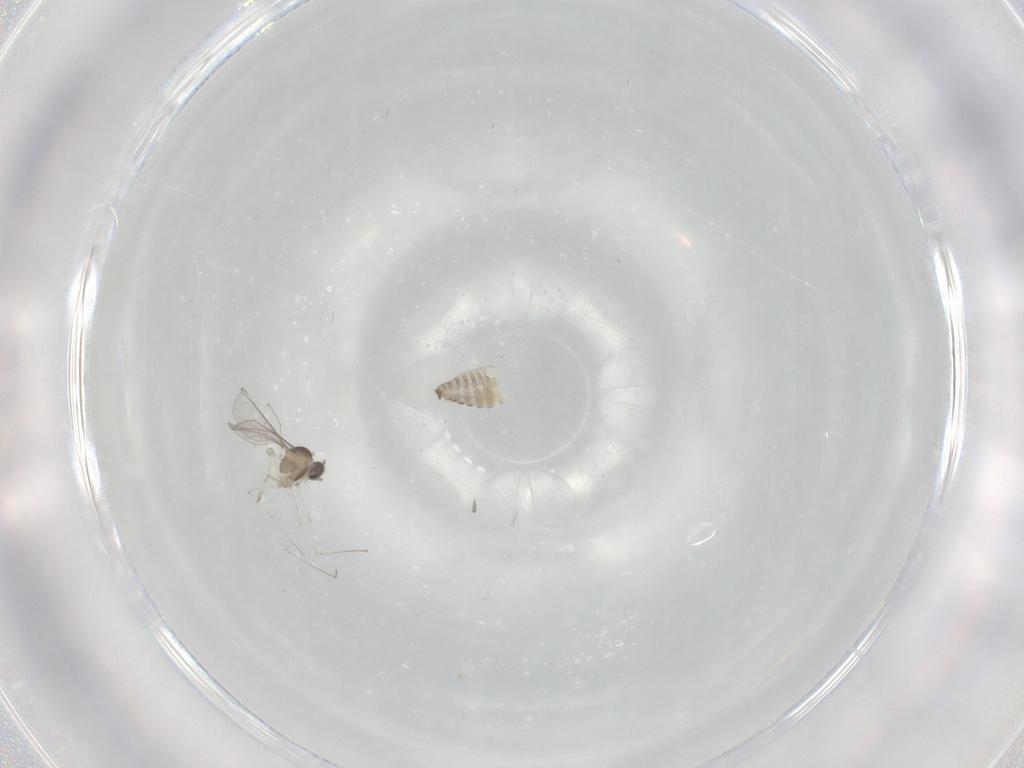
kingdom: Animalia
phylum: Arthropoda
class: Insecta
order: Diptera
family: Cecidomyiidae
